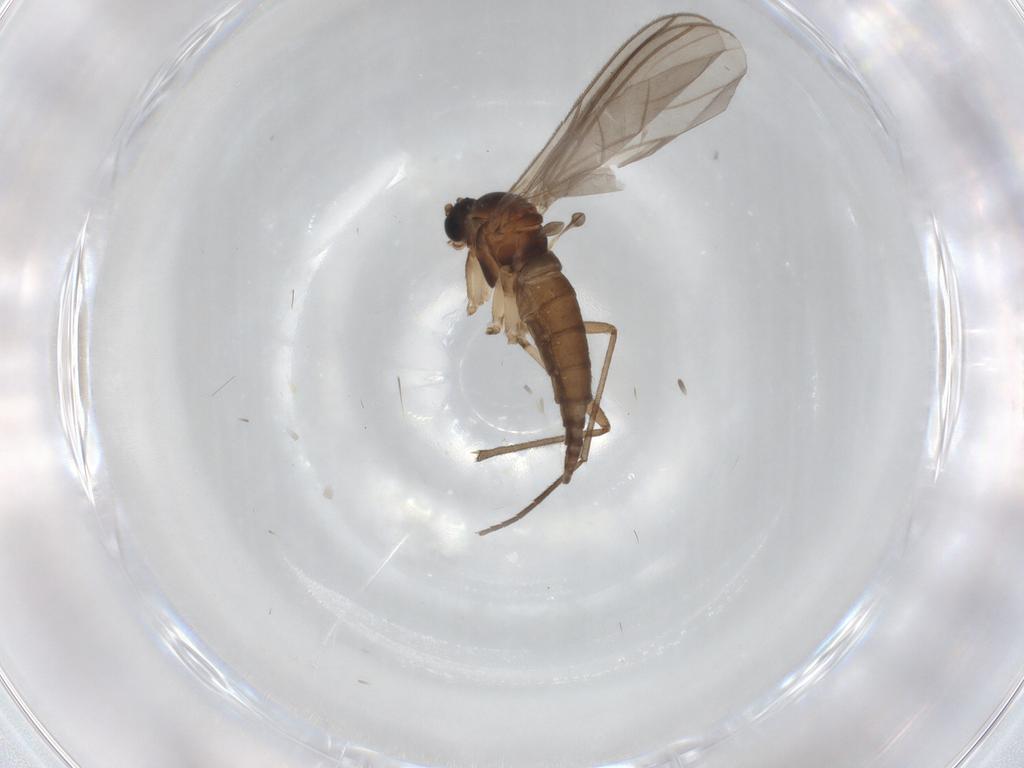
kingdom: Animalia
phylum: Arthropoda
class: Insecta
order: Diptera
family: Sciaridae
